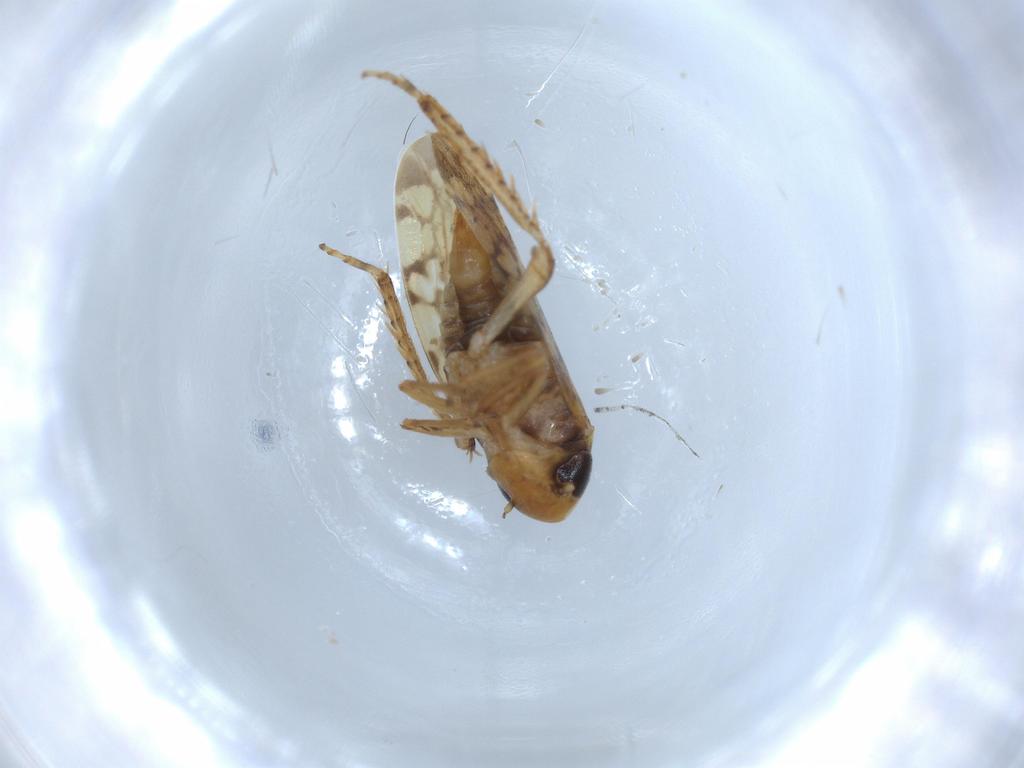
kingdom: Animalia
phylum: Arthropoda
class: Insecta
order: Hemiptera
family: Cicadellidae
